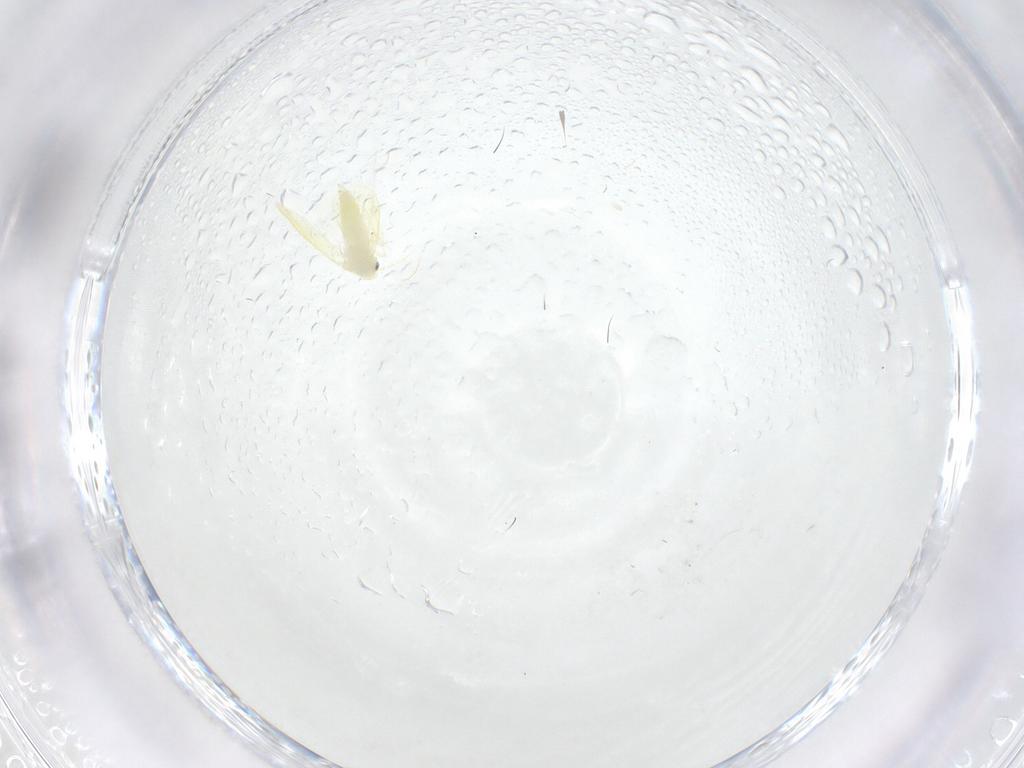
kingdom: Animalia
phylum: Arthropoda
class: Insecta
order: Hemiptera
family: Aleyrodidae
